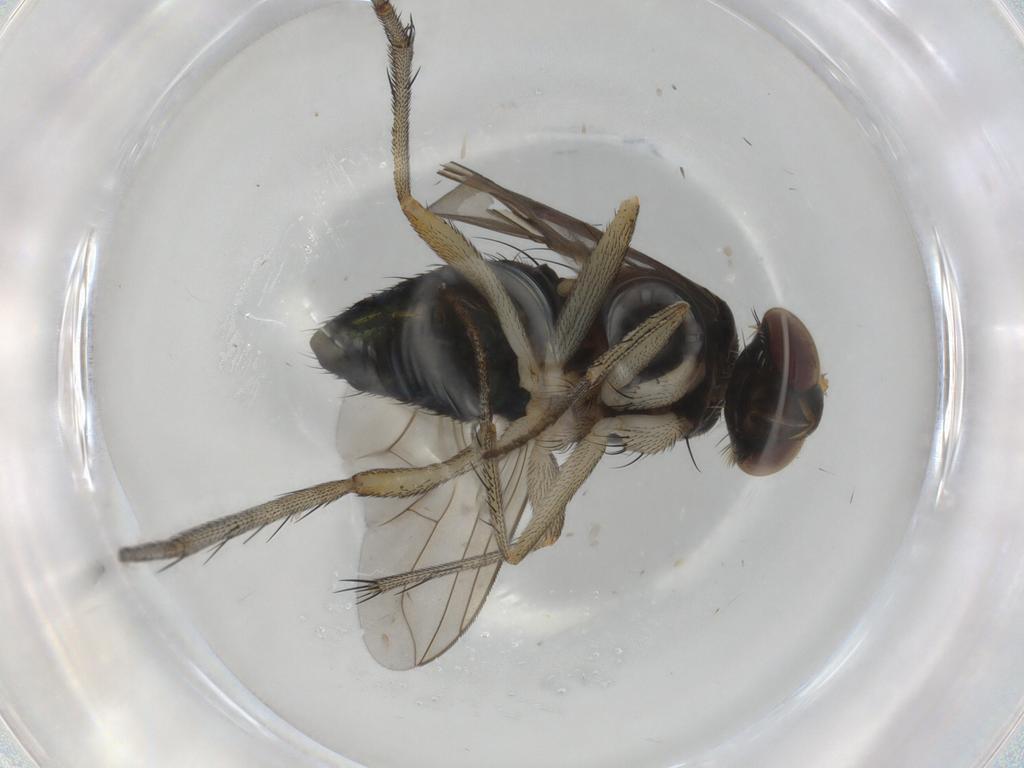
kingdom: Animalia
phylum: Arthropoda
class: Insecta
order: Diptera
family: Dolichopodidae
